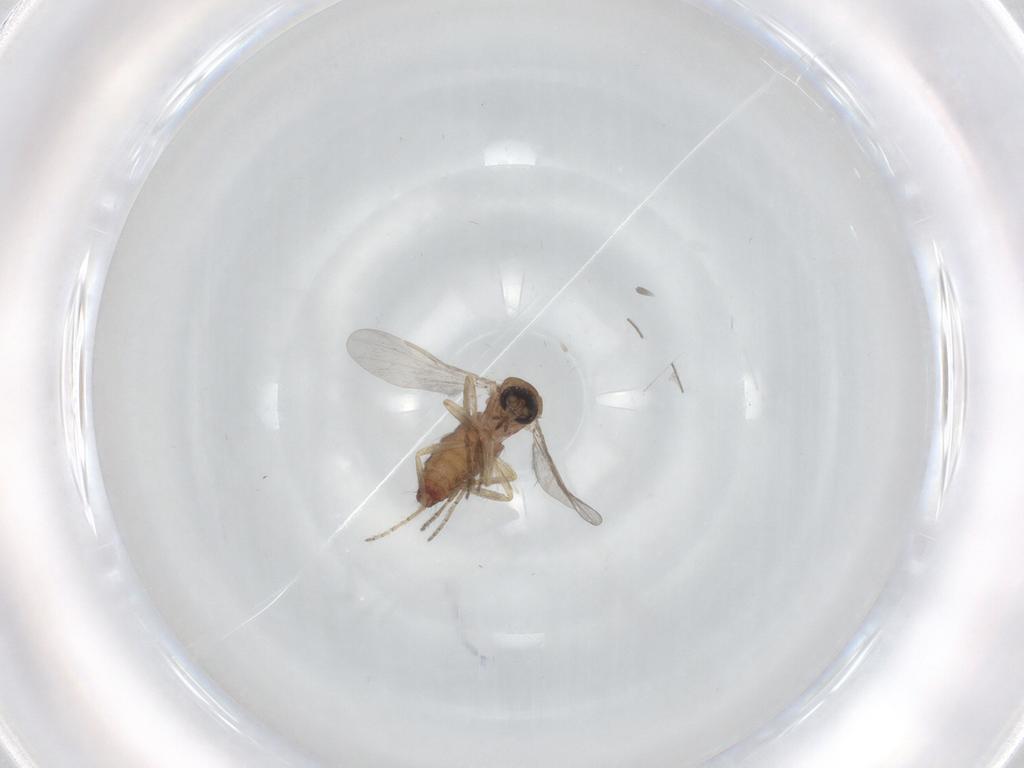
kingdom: Animalia
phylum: Arthropoda
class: Insecta
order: Diptera
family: Ceratopogonidae
